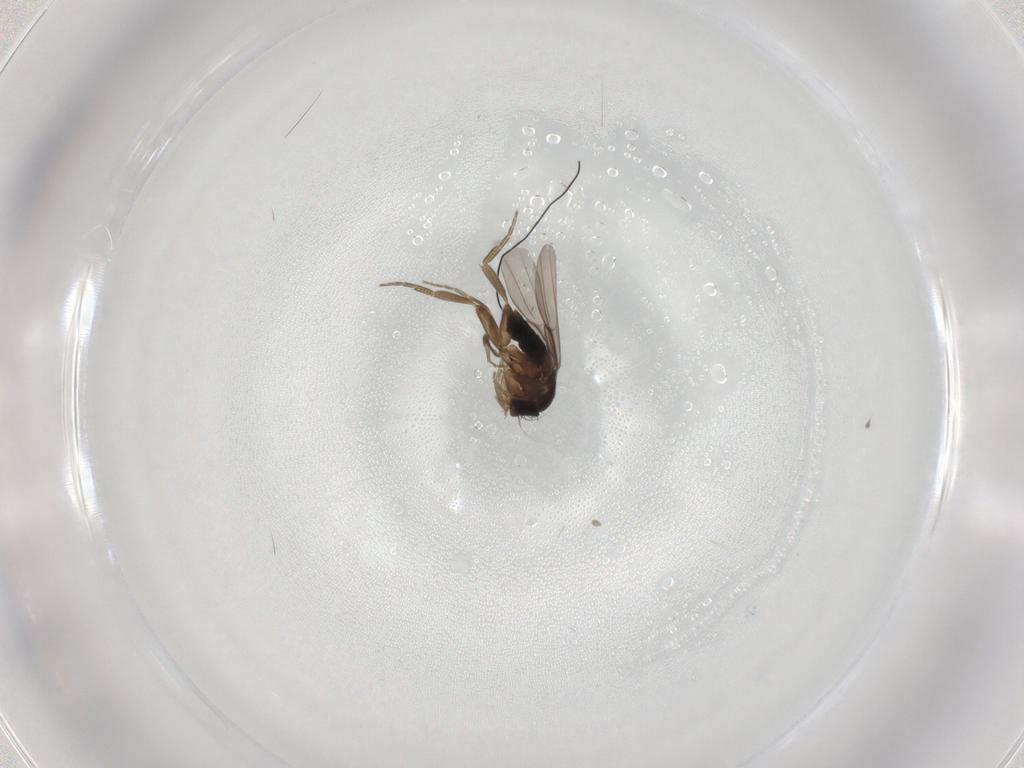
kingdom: Animalia
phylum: Arthropoda
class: Insecta
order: Diptera
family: Phoridae
